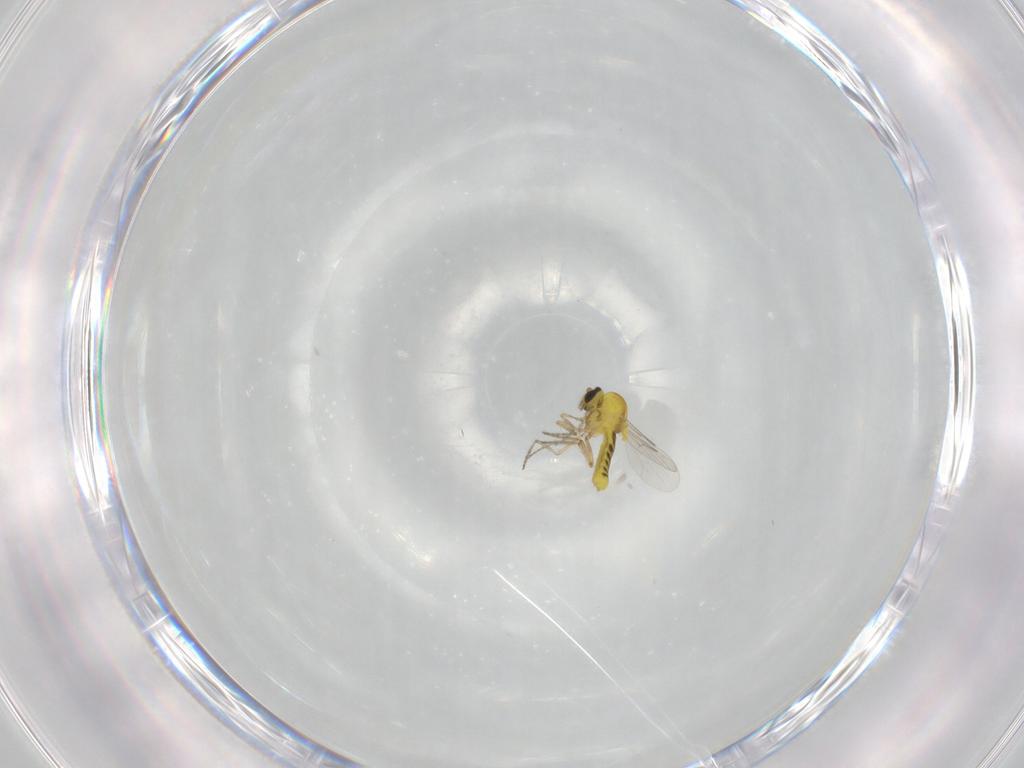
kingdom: Animalia
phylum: Arthropoda
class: Insecta
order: Diptera
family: Ceratopogonidae
